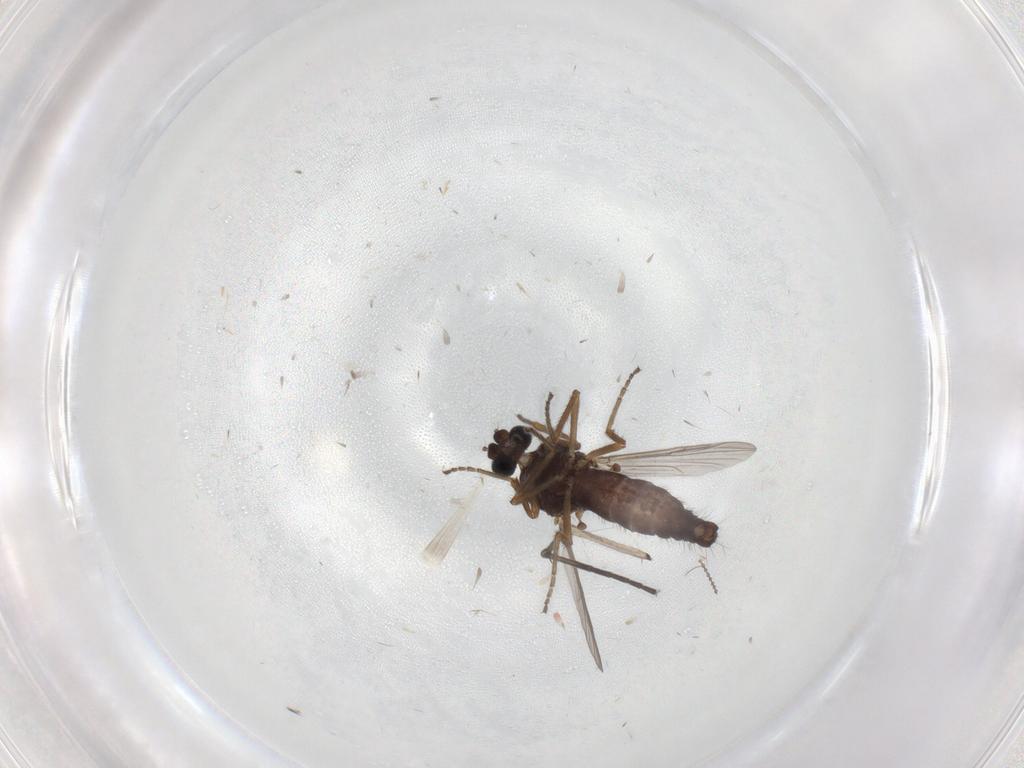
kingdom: Animalia
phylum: Arthropoda
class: Insecta
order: Diptera
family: Ceratopogonidae
